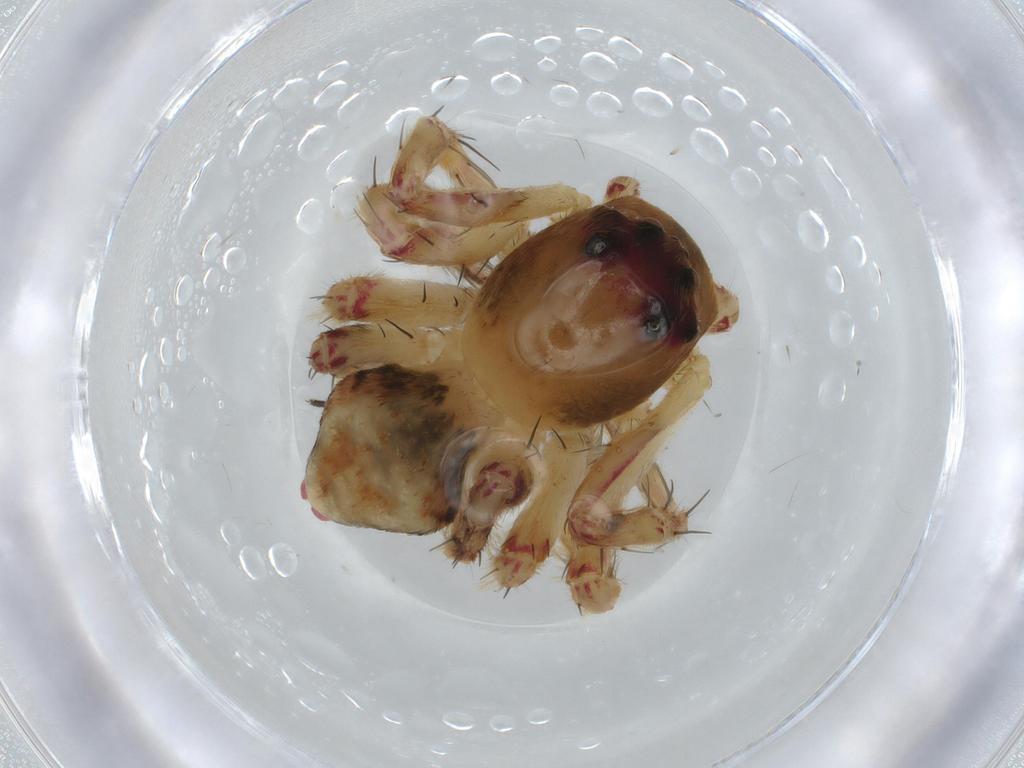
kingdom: Animalia
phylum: Arthropoda
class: Arachnida
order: Araneae
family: Oxyopidae
